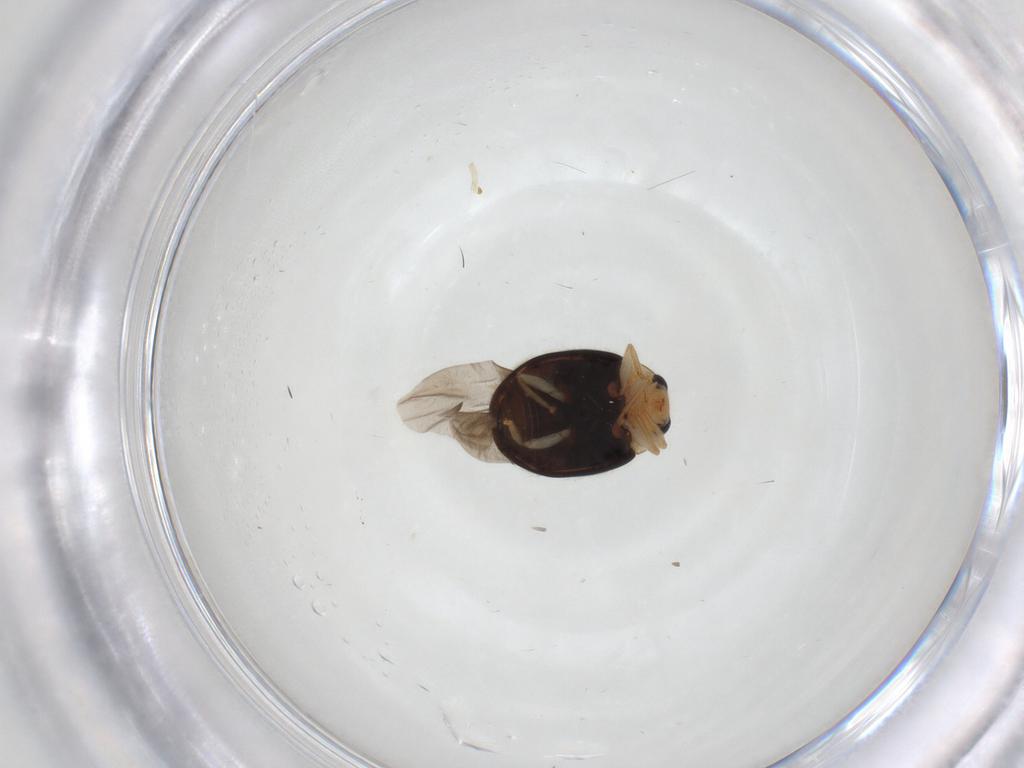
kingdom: Animalia
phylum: Arthropoda
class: Insecta
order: Coleoptera
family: Coccinellidae
